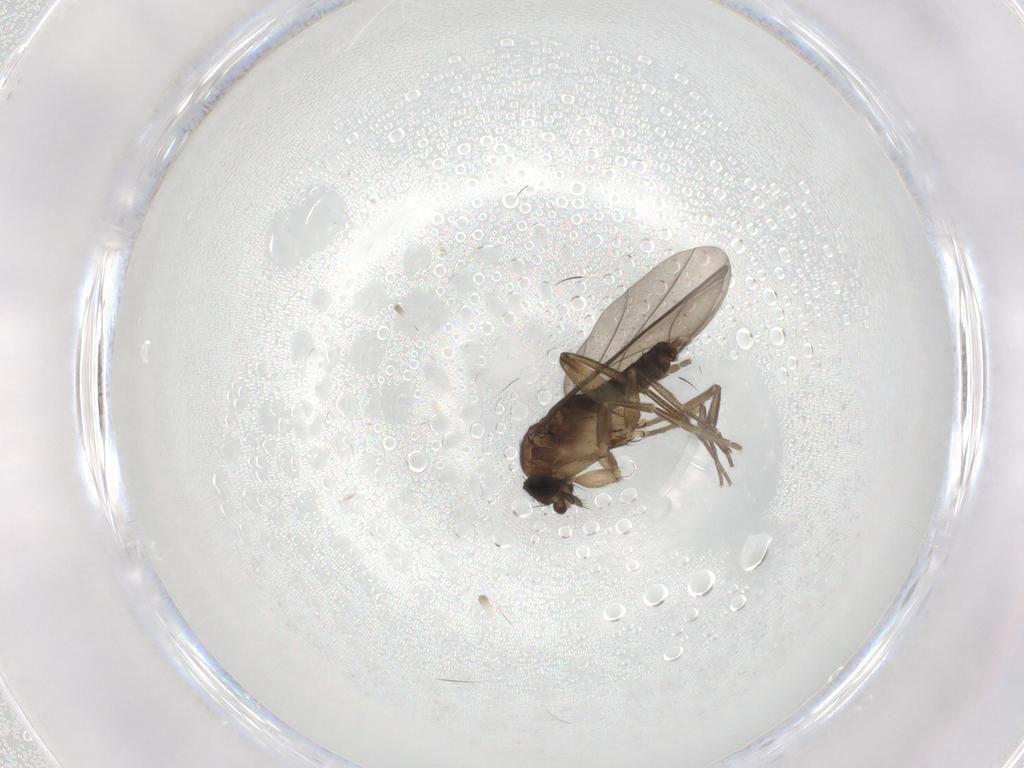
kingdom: Animalia
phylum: Arthropoda
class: Insecta
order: Diptera
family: Phoridae
